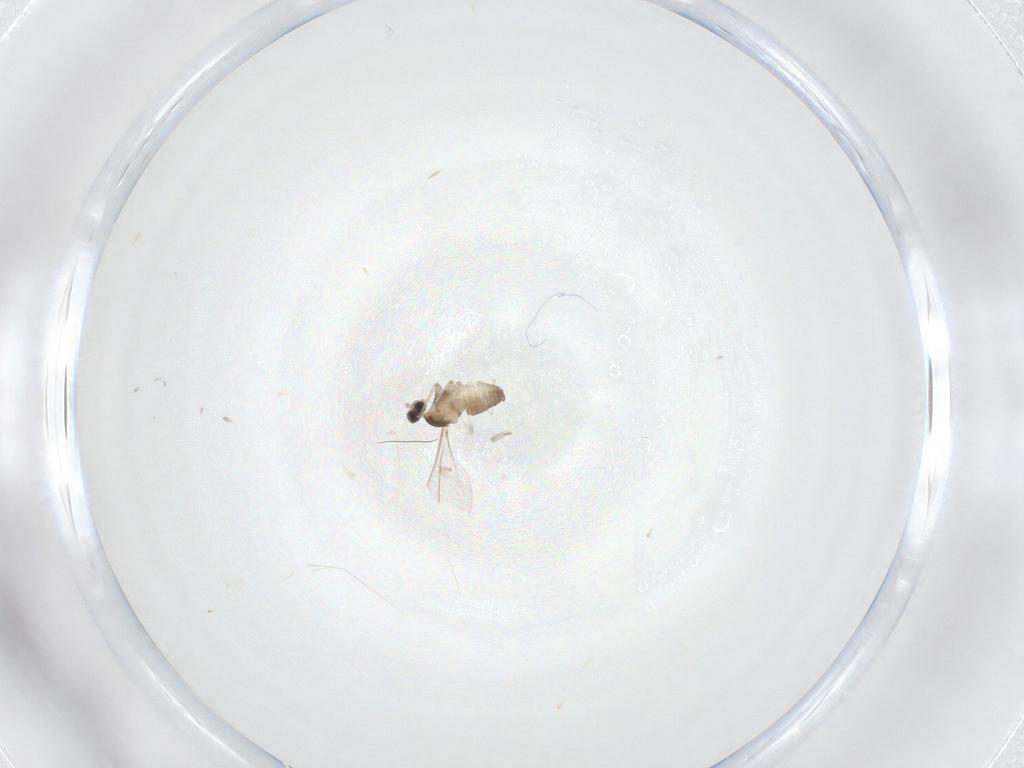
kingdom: Animalia
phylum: Arthropoda
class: Insecta
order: Diptera
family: Cecidomyiidae
